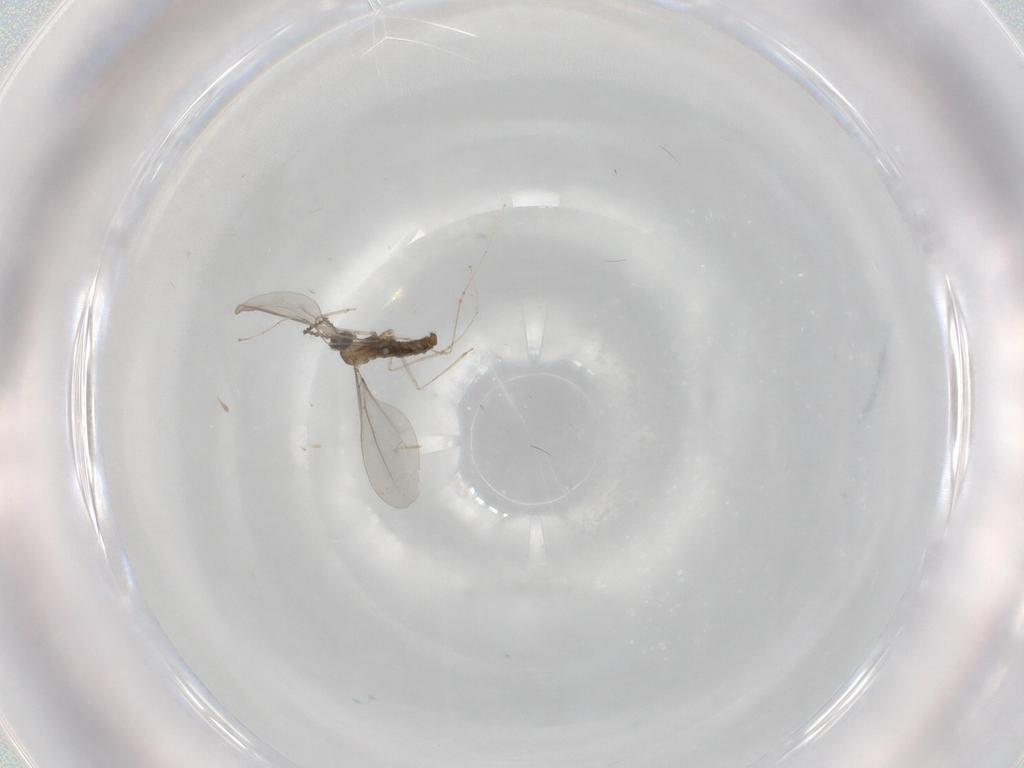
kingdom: Animalia
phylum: Arthropoda
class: Insecta
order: Diptera
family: Cecidomyiidae
